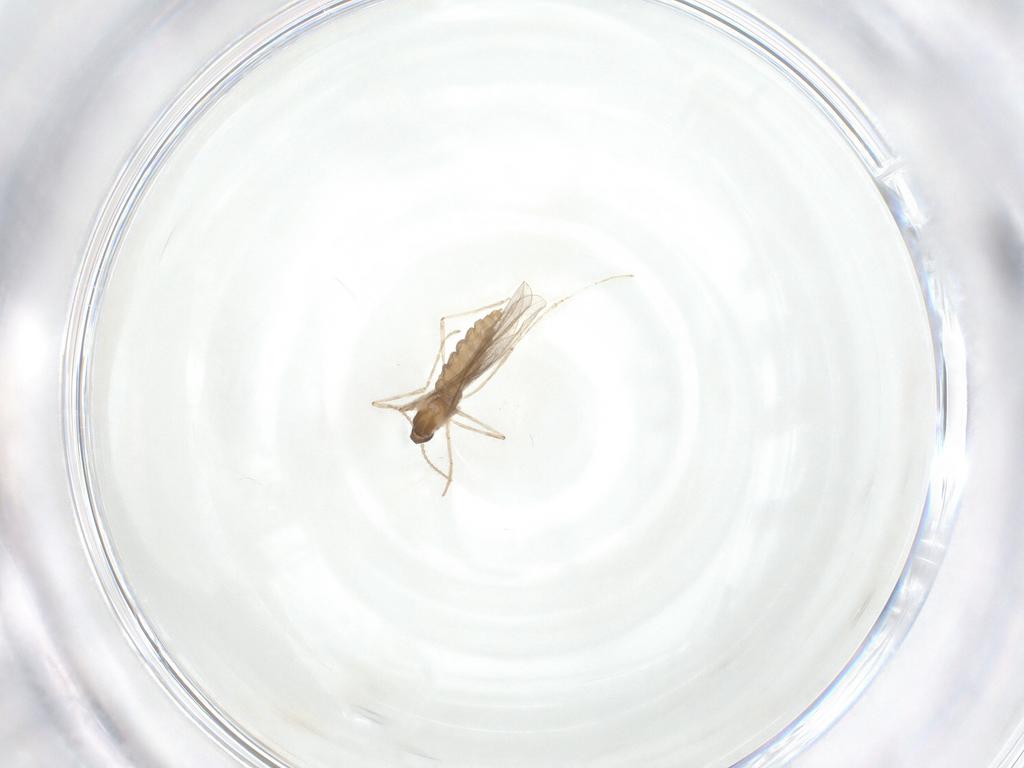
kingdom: Animalia
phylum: Arthropoda
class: Insecta
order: Diptera
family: Cecidomyiidae
